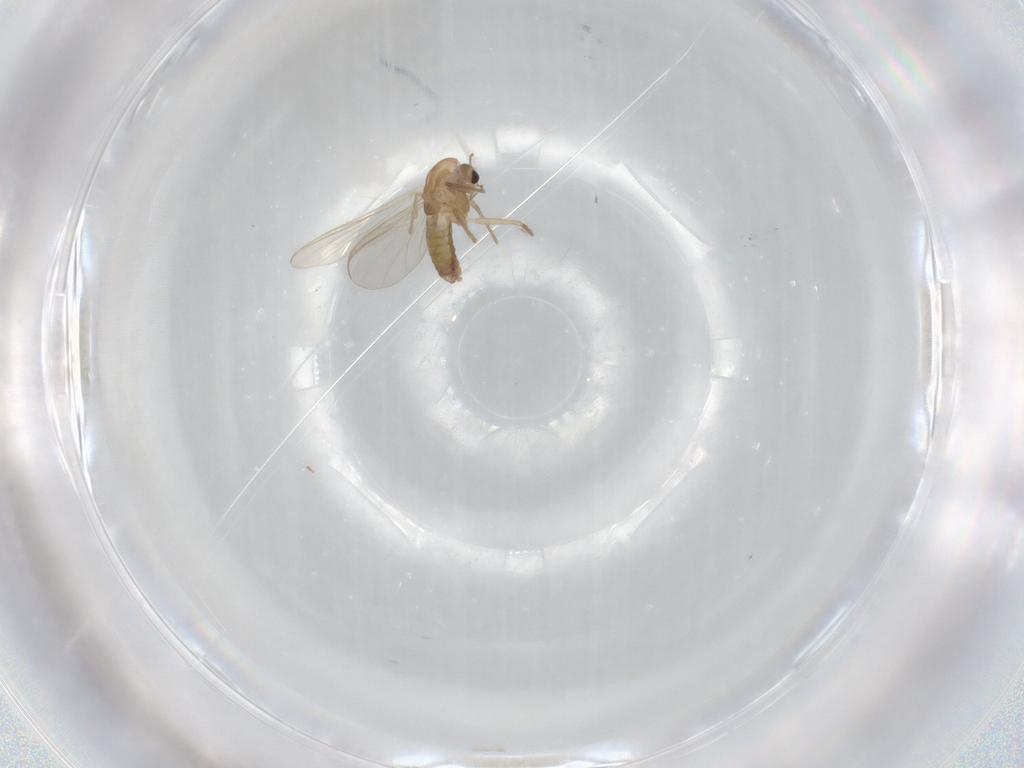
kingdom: Animalia
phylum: Arthropoda
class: Insecta
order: Diptera
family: Chironomidae
